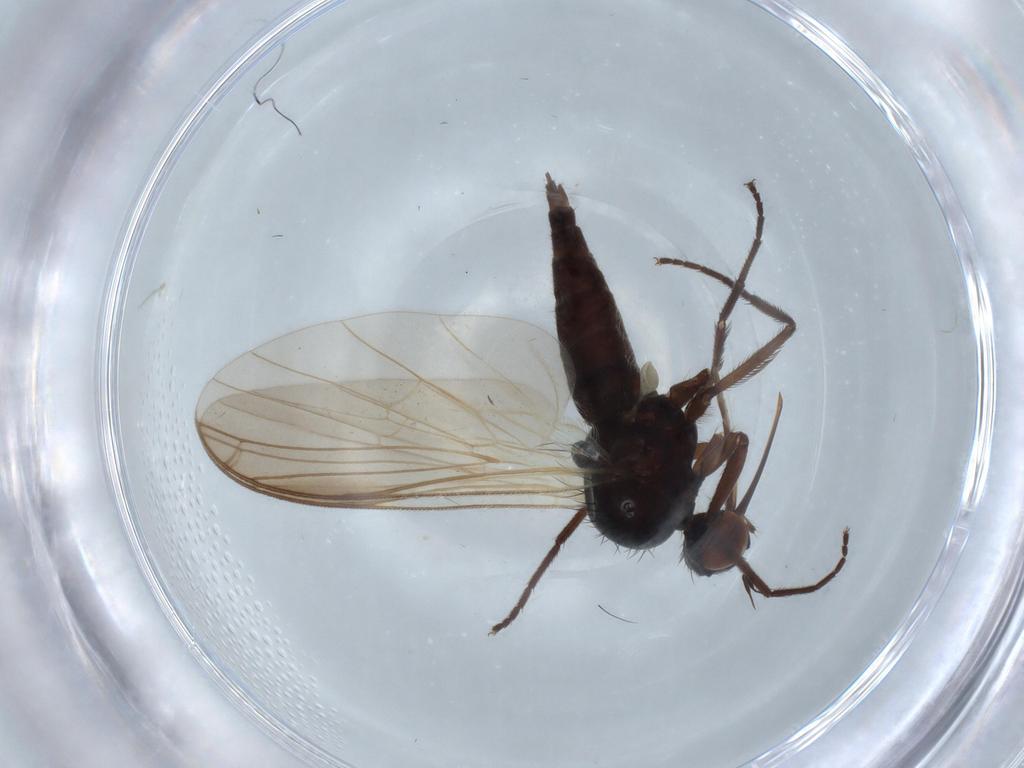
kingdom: Animalia
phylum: Arthropoda
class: Insecta
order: Diptera
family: Empididae
